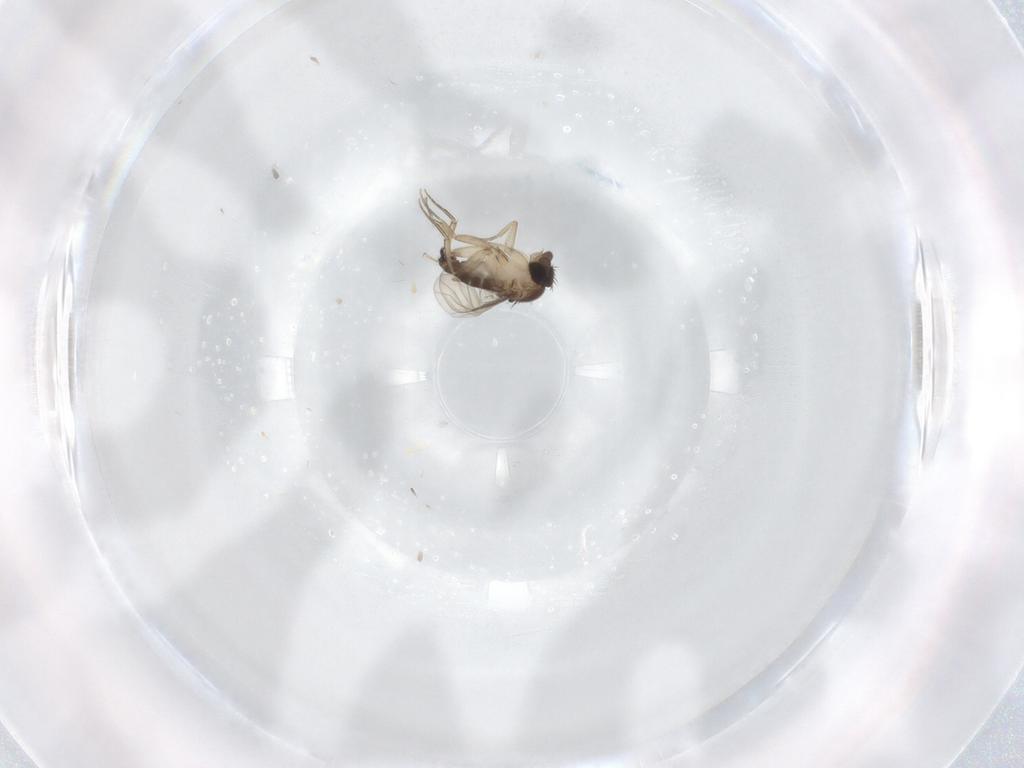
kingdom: Animalia
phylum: Arthropoda
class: Insecta
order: Diptera
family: Phoridae
